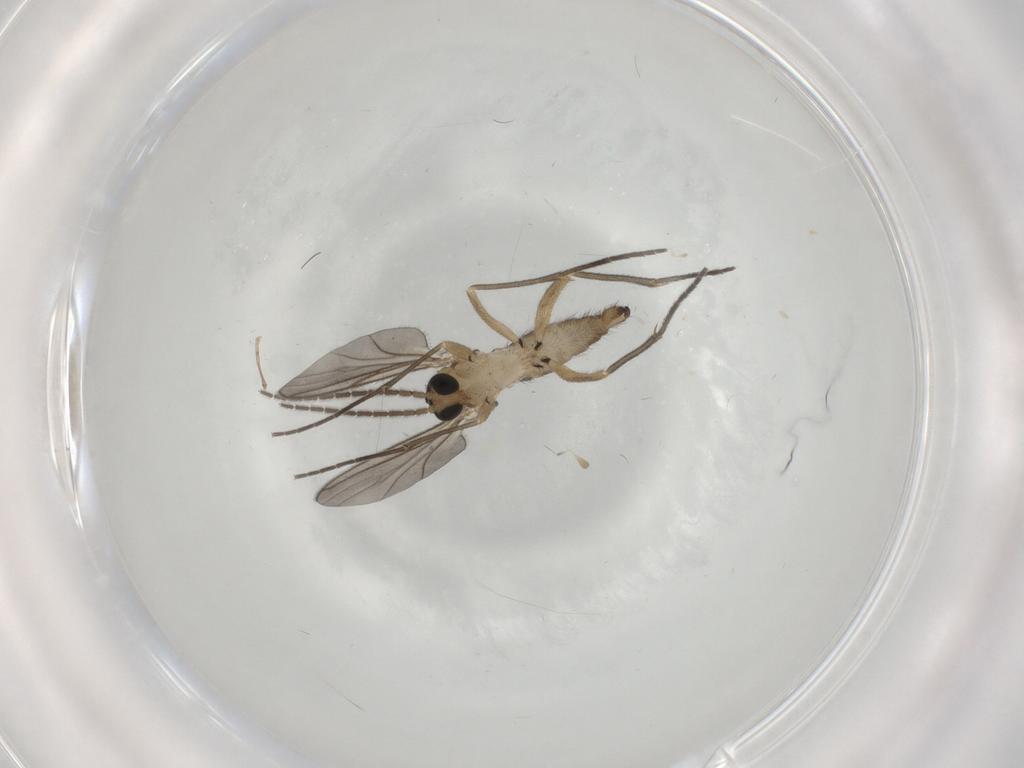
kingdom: Animalia
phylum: Arthropoda
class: Insecta
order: Diptera
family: Sciaridae
